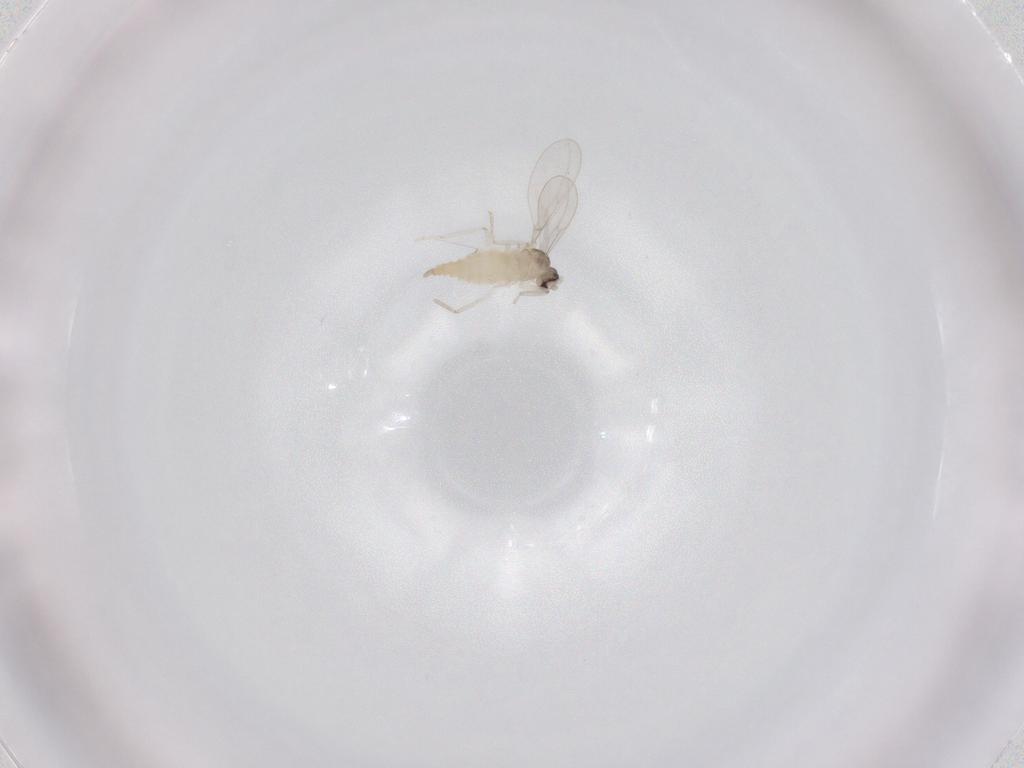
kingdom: Animalia
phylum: Arthropoda
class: Insecta
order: Diptera
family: Cecidomyiidae
